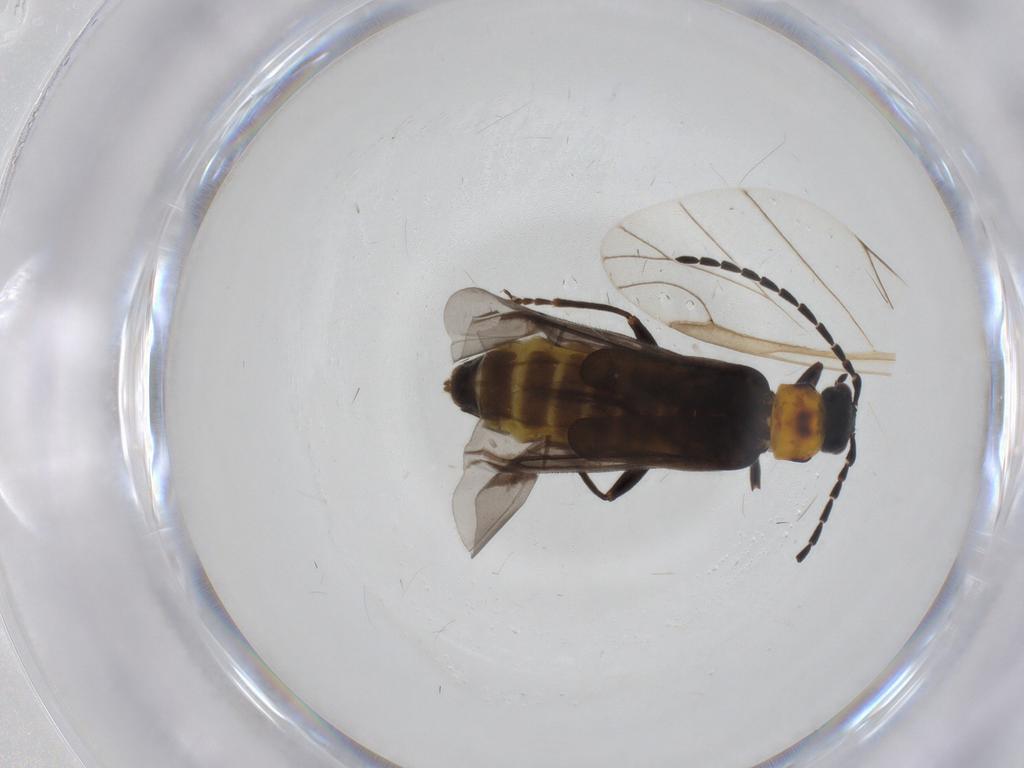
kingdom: Animalia
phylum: Arthropoda
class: Insecta
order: Coleoptera
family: Cantharidae
